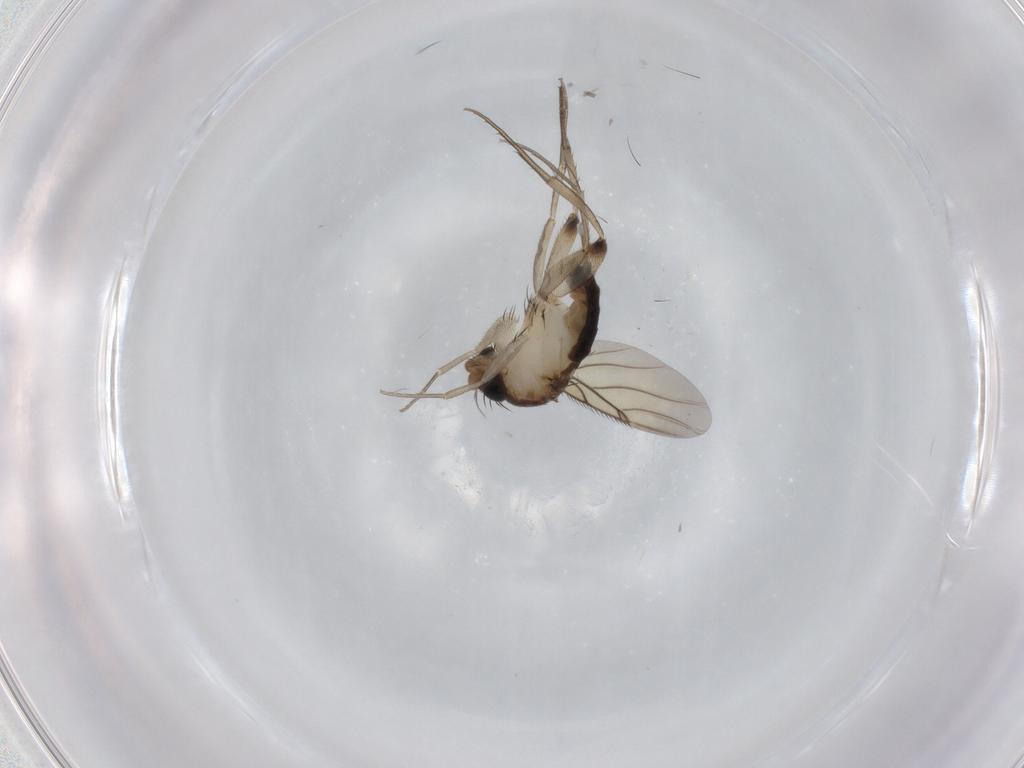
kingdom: Animalia
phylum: Arthropoda
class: Insecta
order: Diptera
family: Phoridae
